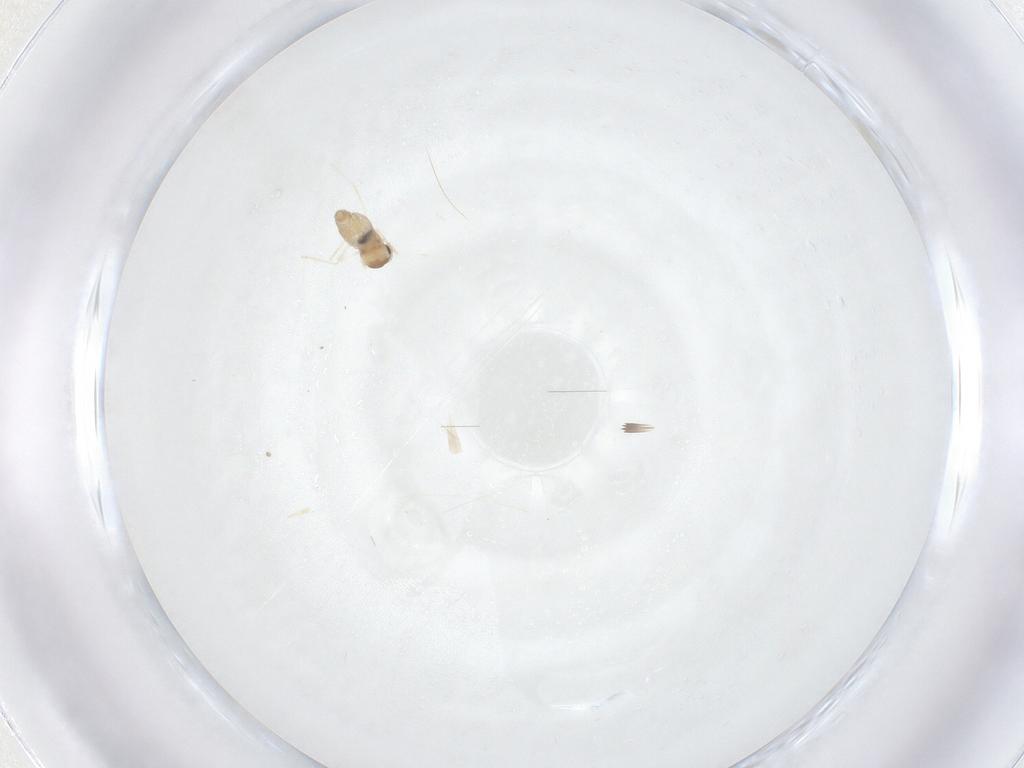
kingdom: Animalia
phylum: Arthropoda
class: Insecta
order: Diptera
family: Cecidomyiidae
